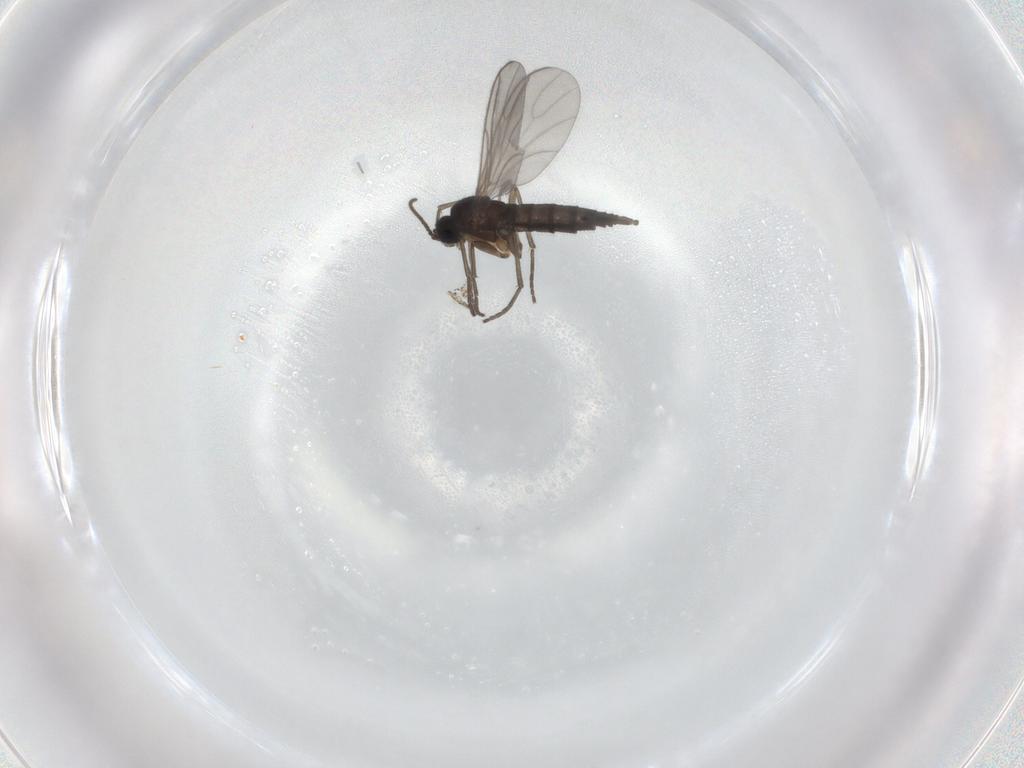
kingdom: Animalia
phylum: Arthropoda
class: Insecta
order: Diptera
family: Sciaridae
